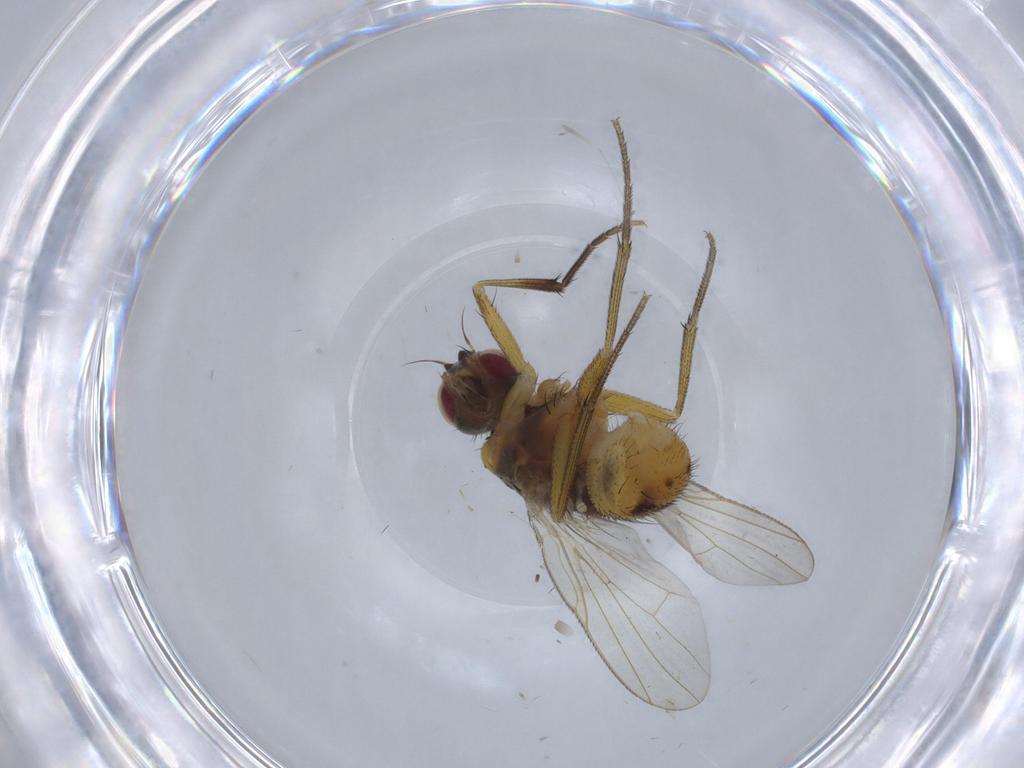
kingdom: Animalia
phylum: Arthropoda
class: Insecta
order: Diptera
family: Muscidae
